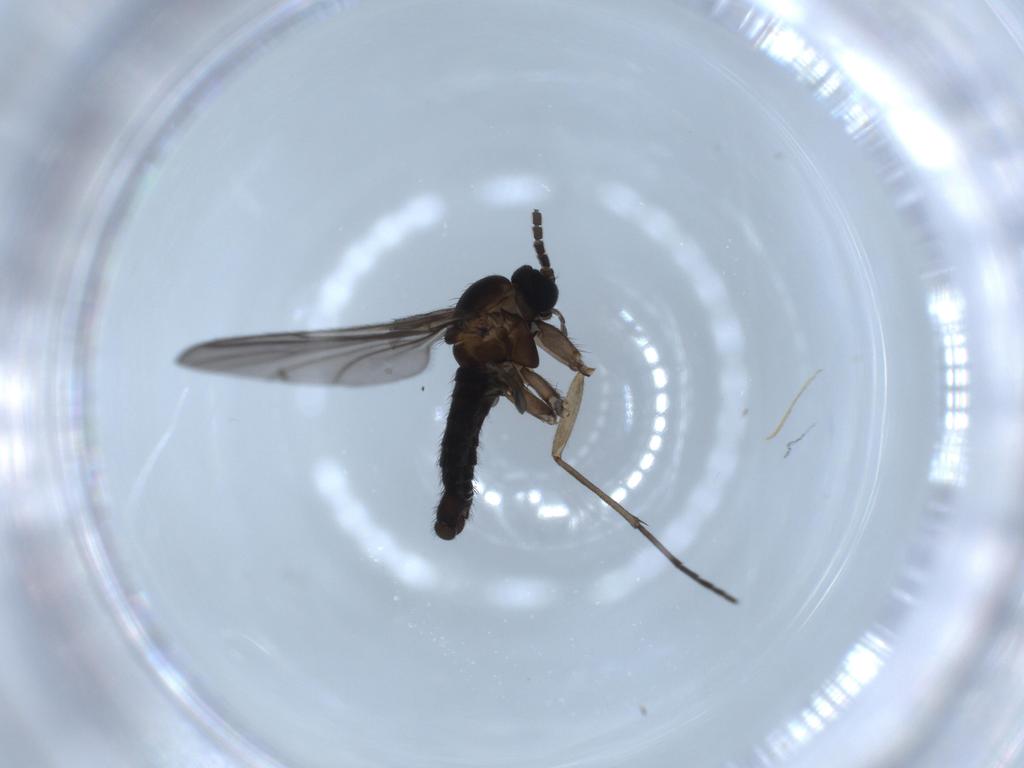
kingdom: Animalia
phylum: Arthropoda
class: Insecta
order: Diptera
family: Sciaridae
